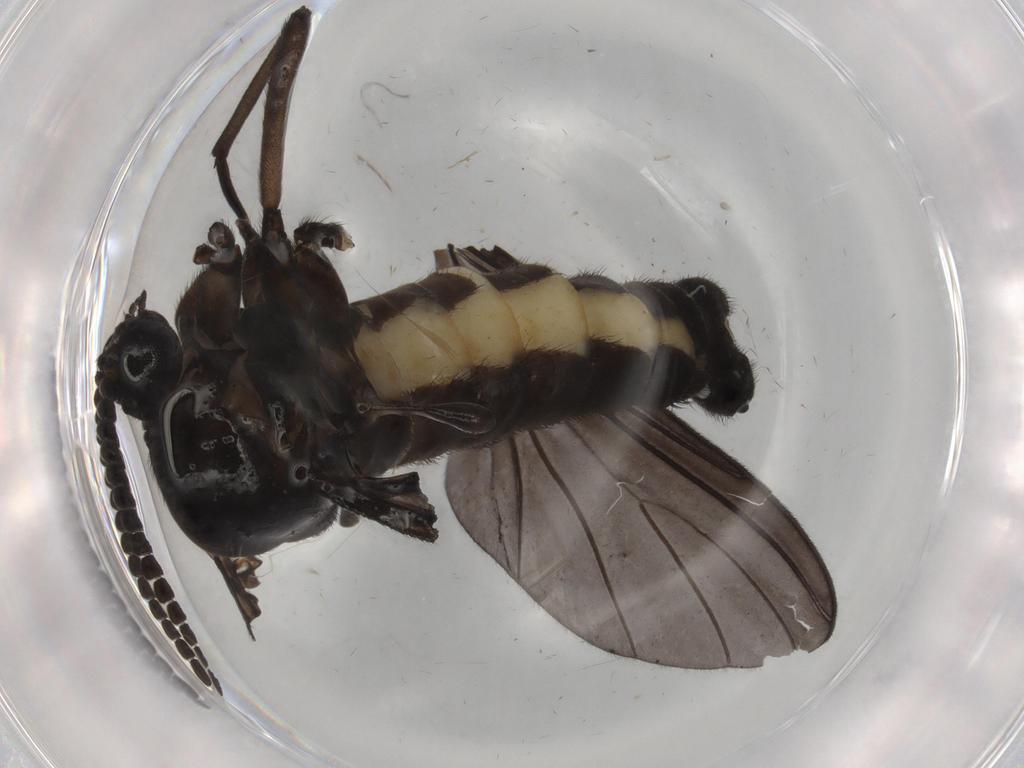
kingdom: Animalia
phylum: Arthropoda
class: Insecta
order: Diptera
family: Sciaridae
